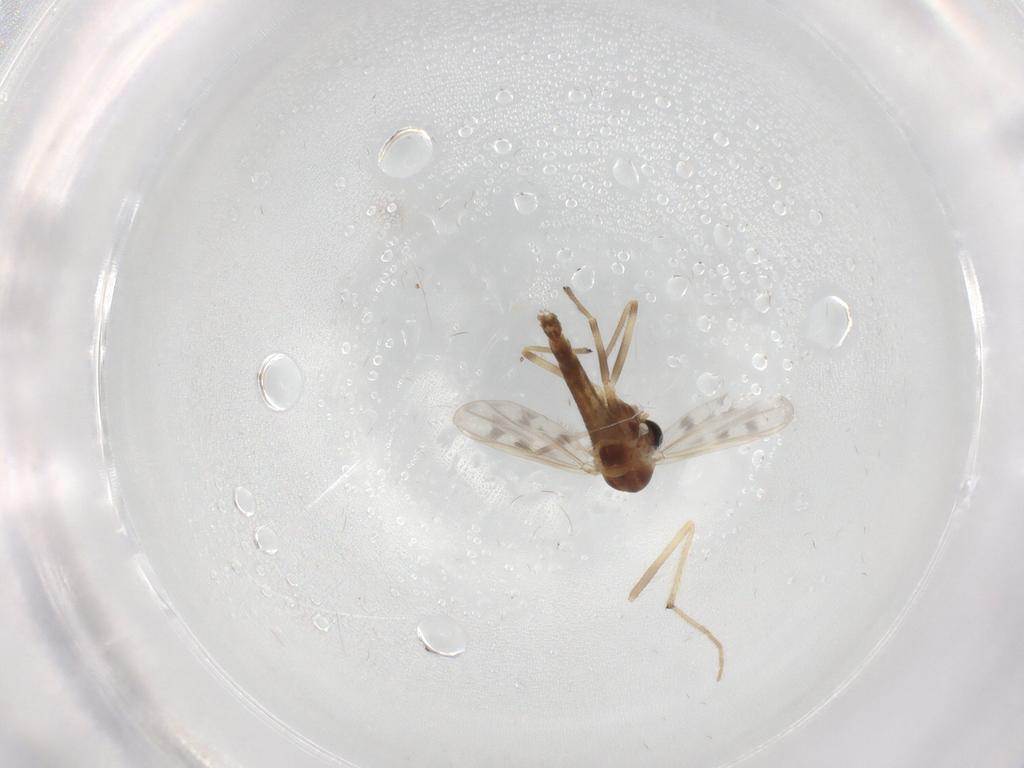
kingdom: Animalia
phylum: Arthropoda
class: Insecta
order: Diptera
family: Chironomidae
